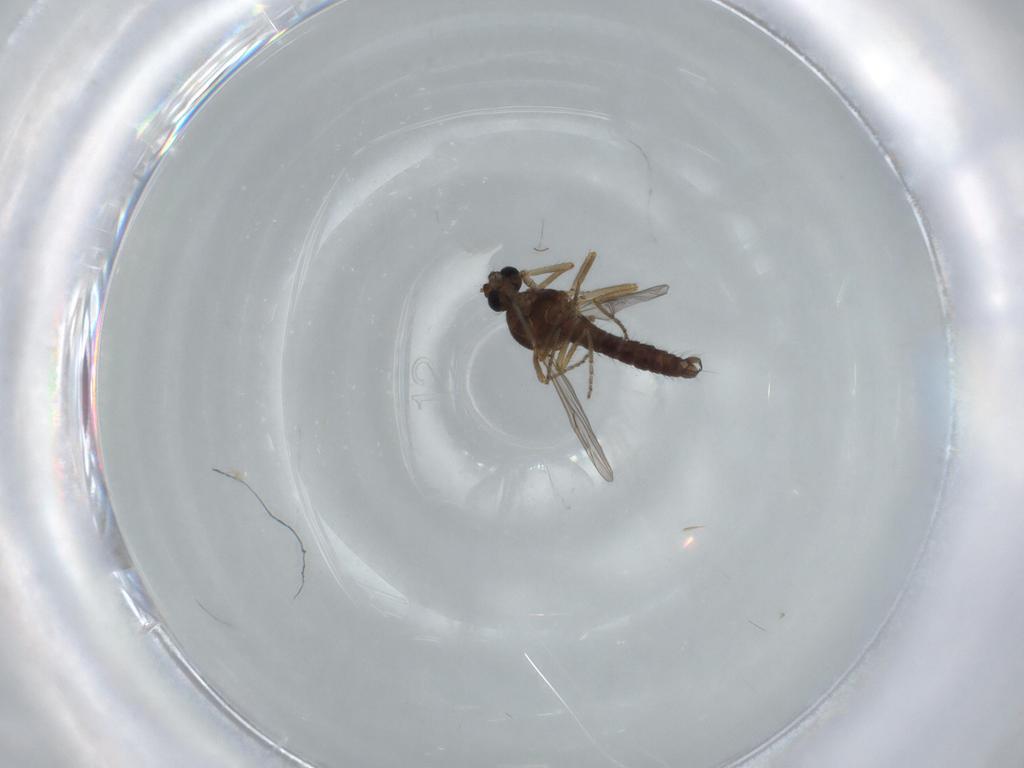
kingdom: Animalia
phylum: Arthropoda
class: Insecta
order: Diptera
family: Ceratopogonidae
